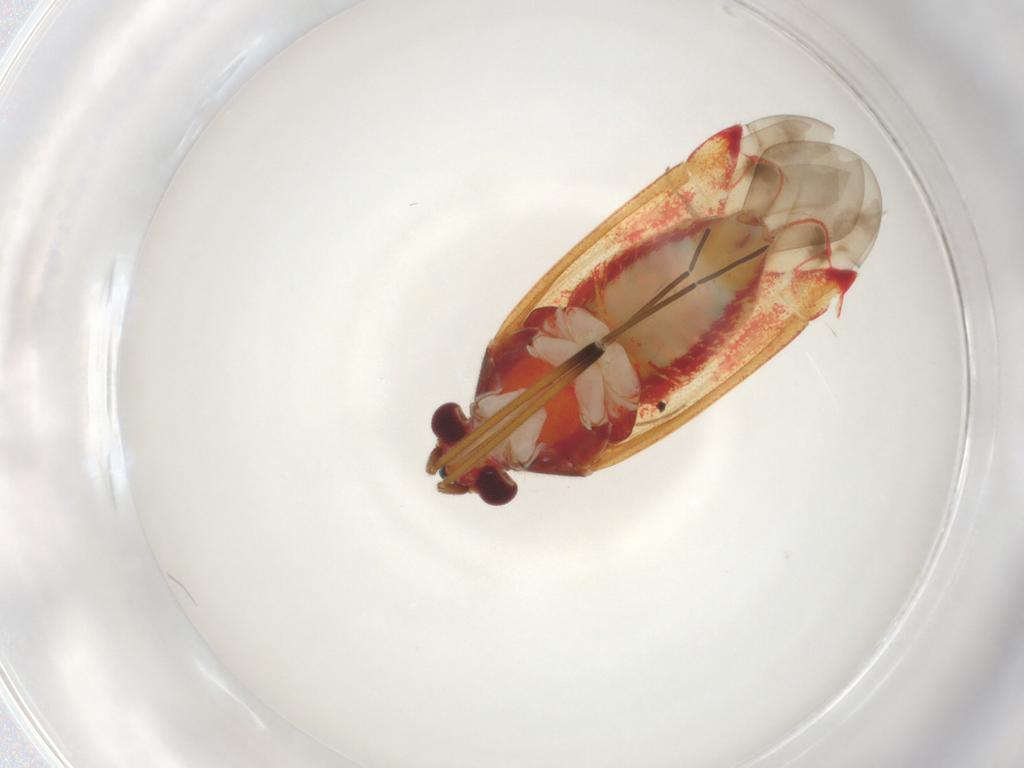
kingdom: Animalia
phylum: Arthropoda
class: Insecta
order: Hemiptera
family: Miridae
